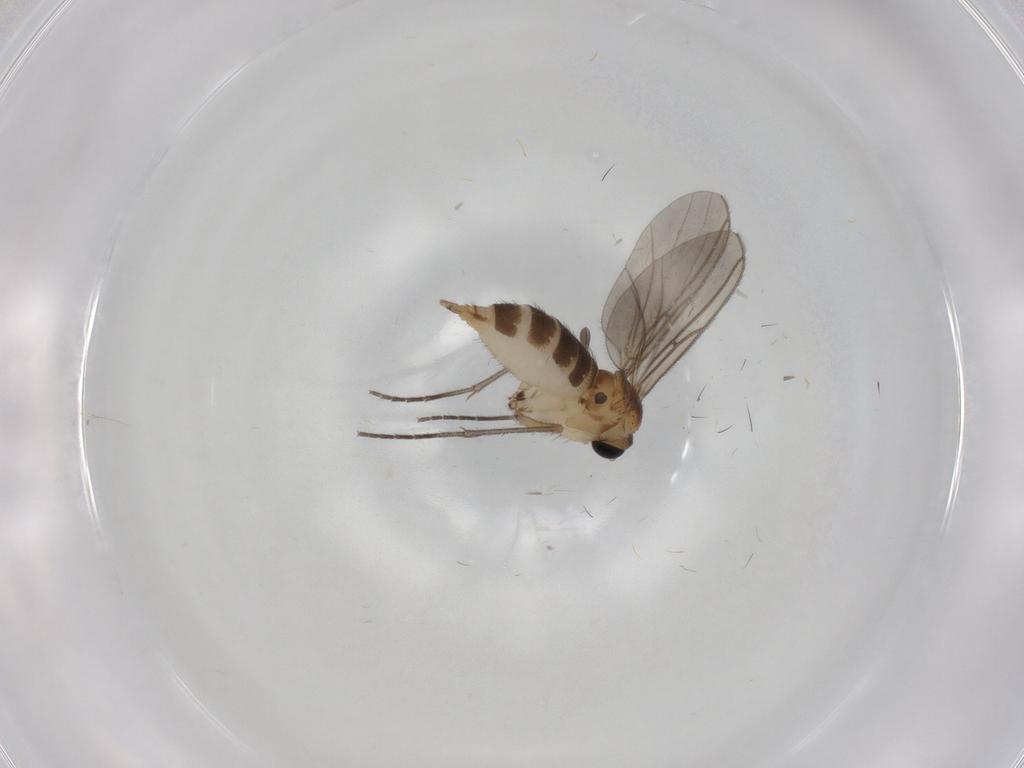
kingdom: Animalia
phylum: Arthropoda
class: Insecta
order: Diptera
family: Sciaridae
